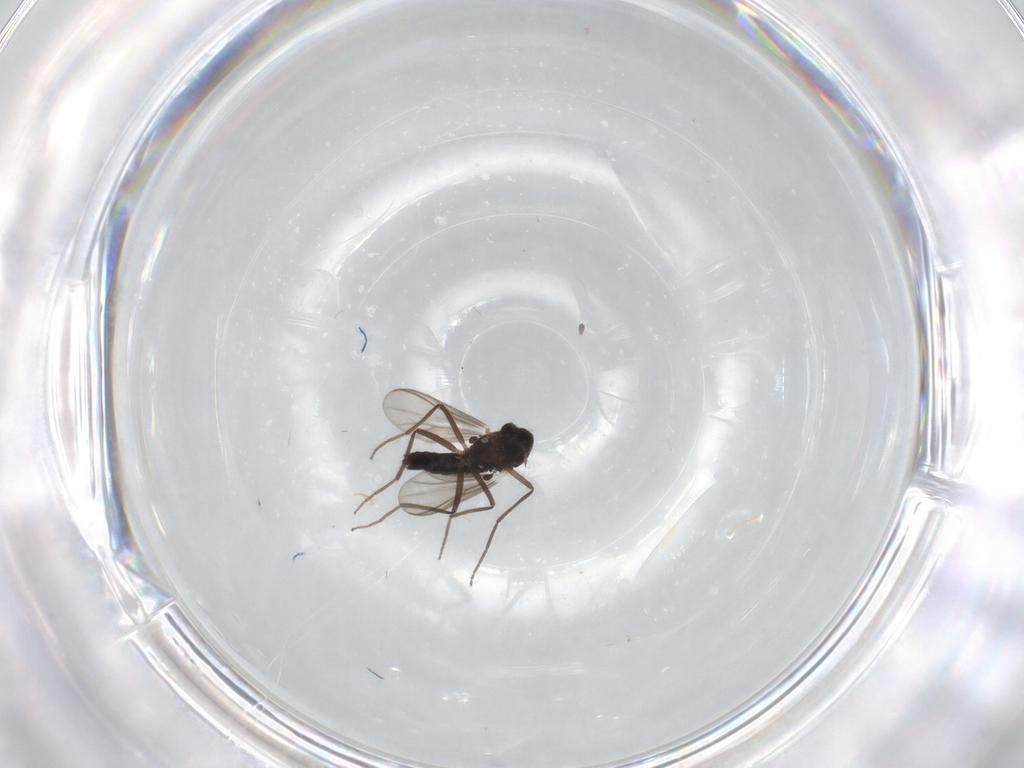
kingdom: Animalia
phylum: Arthropoda
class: Insecta
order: Diptera
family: Chironomidae
